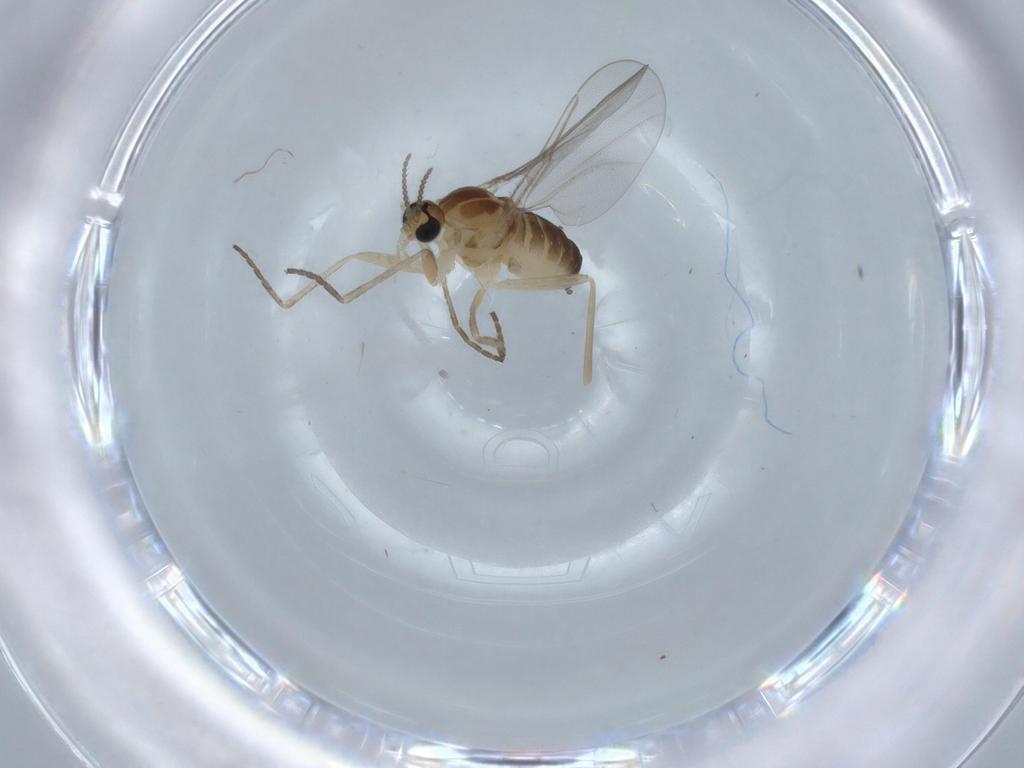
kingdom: Animalia
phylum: Arthropoda
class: Insecta
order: Diptera
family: Cecidomyiidae
